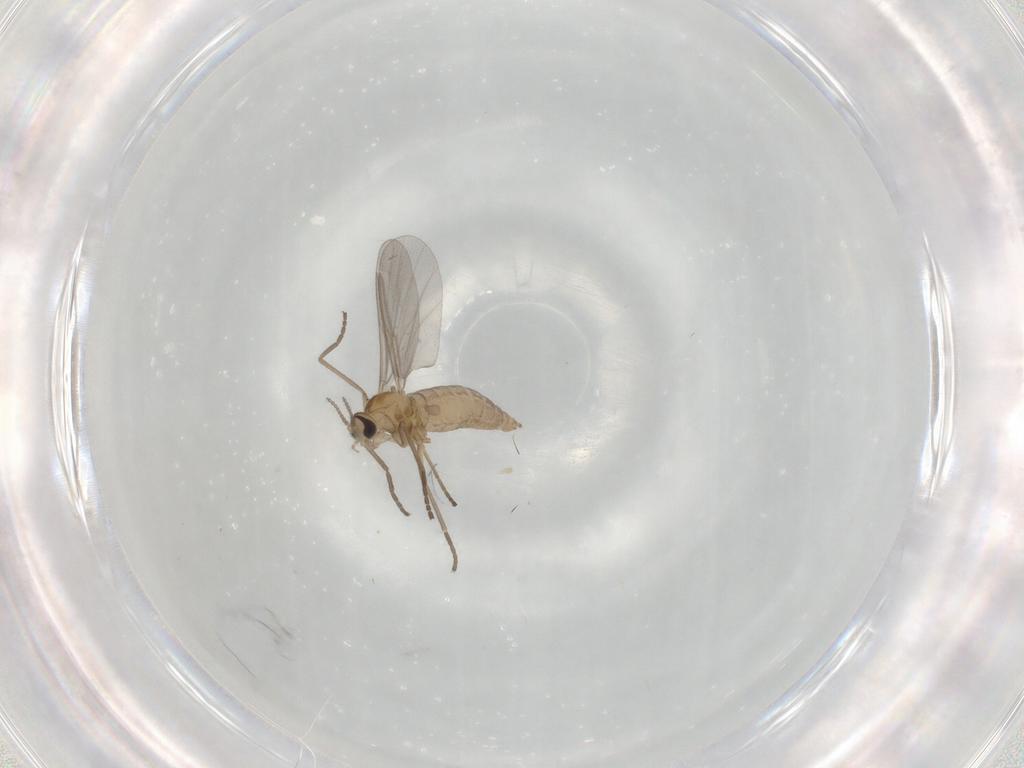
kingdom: Animalia
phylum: Arthropoda
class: Insecta
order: Diptera
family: Cecidomyiidae
